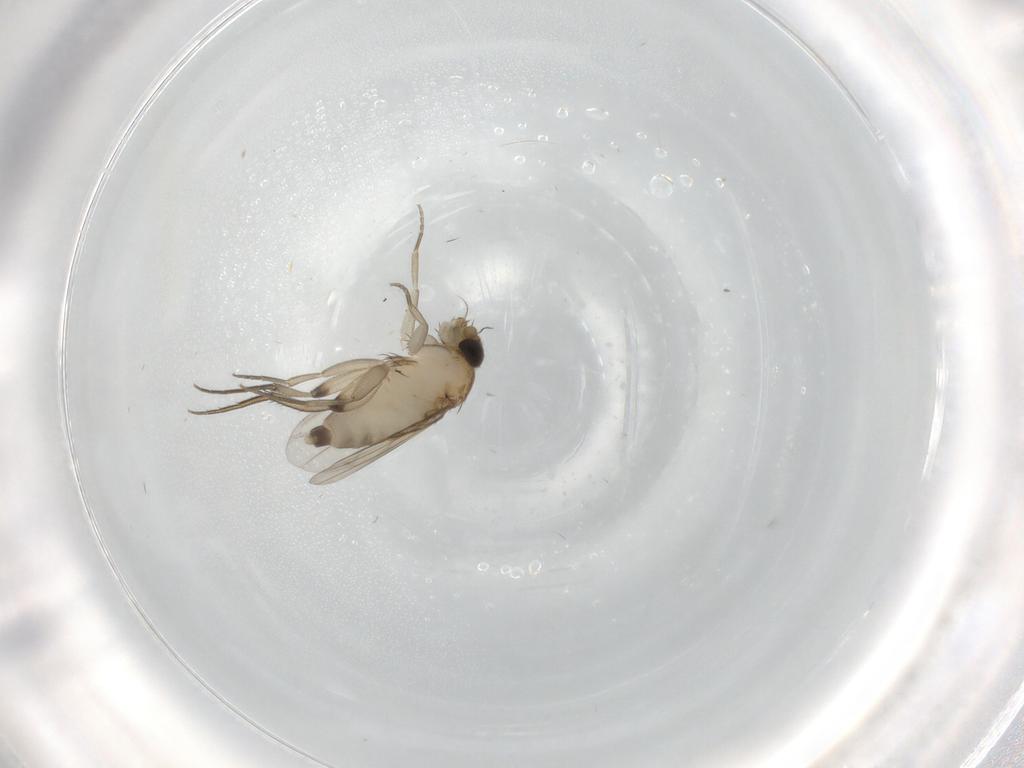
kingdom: Animalia
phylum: Arthropoda
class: Insecta
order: Diptera
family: Phoridae
